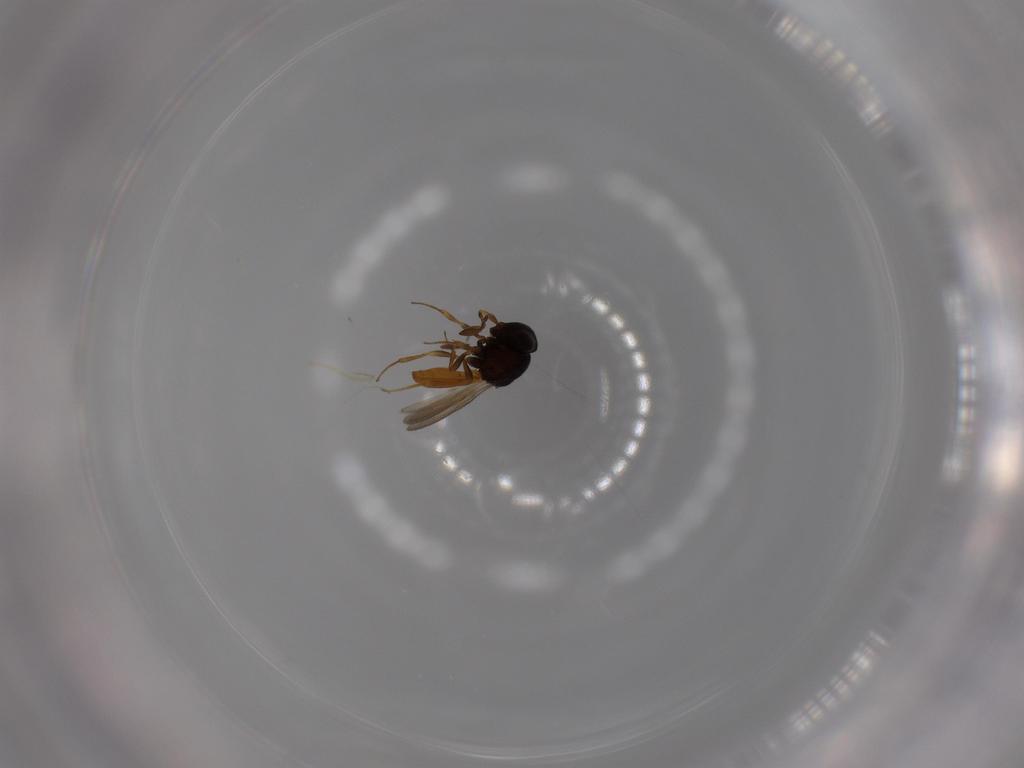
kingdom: Animalia
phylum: Arthropoda
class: Insecta
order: Hymenoptera
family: Scelionidae
